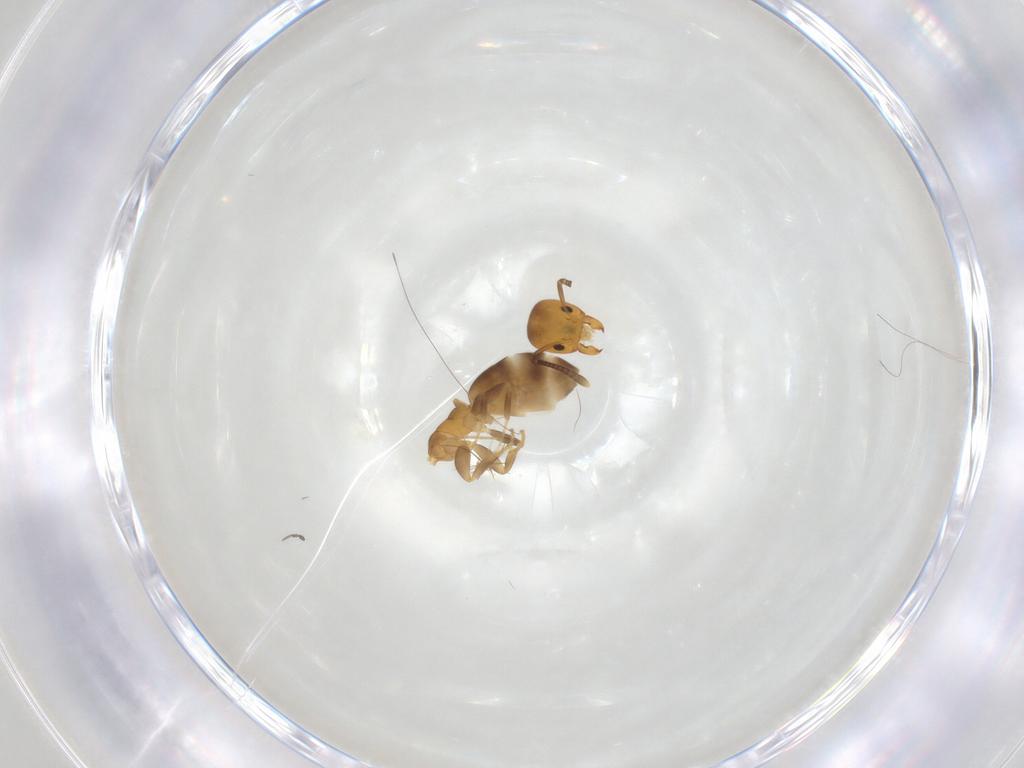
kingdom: Animalia
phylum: Arthropoda
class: Insecta
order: Hymenoptera
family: Formicidae
